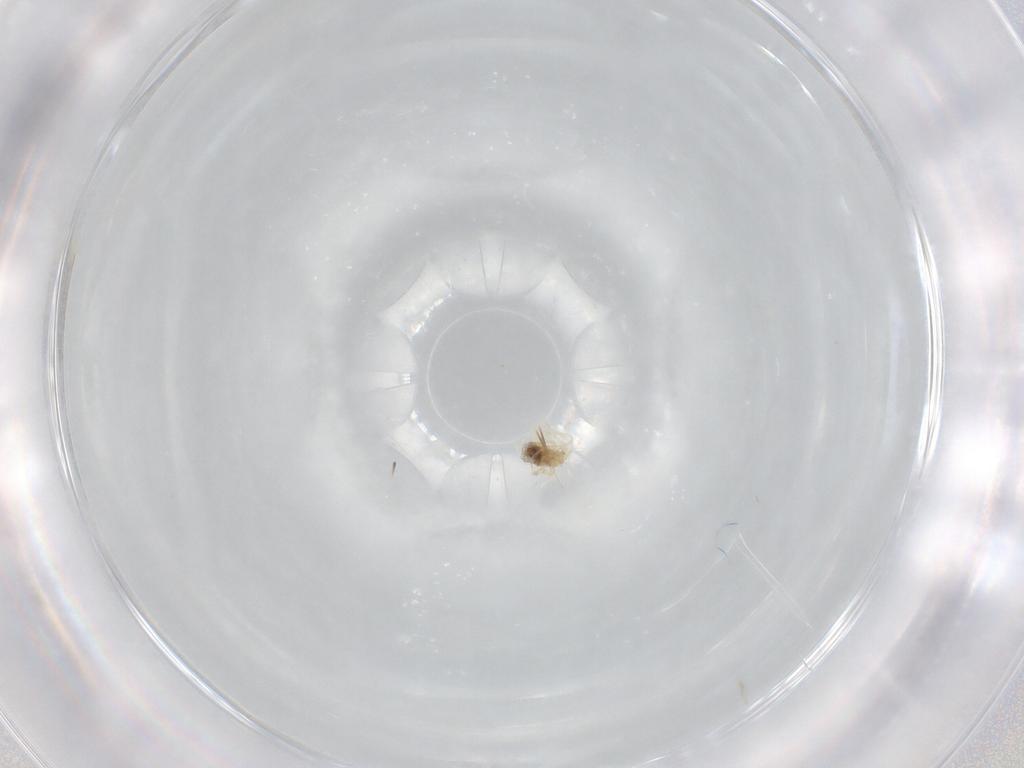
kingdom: Animalia
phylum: Arthropoda
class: Arachnida
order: Trombidiformes
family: Anystidae
